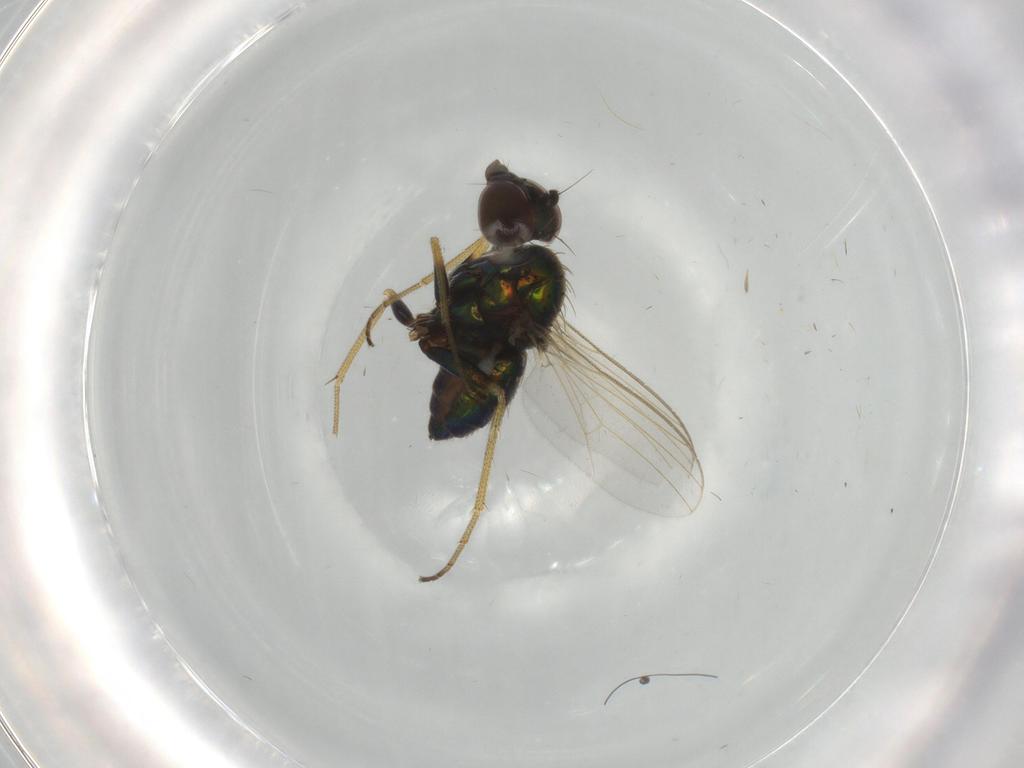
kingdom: Animalia
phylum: Arthropoda
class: Insecta
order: Diptera
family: Dolichopodidae
